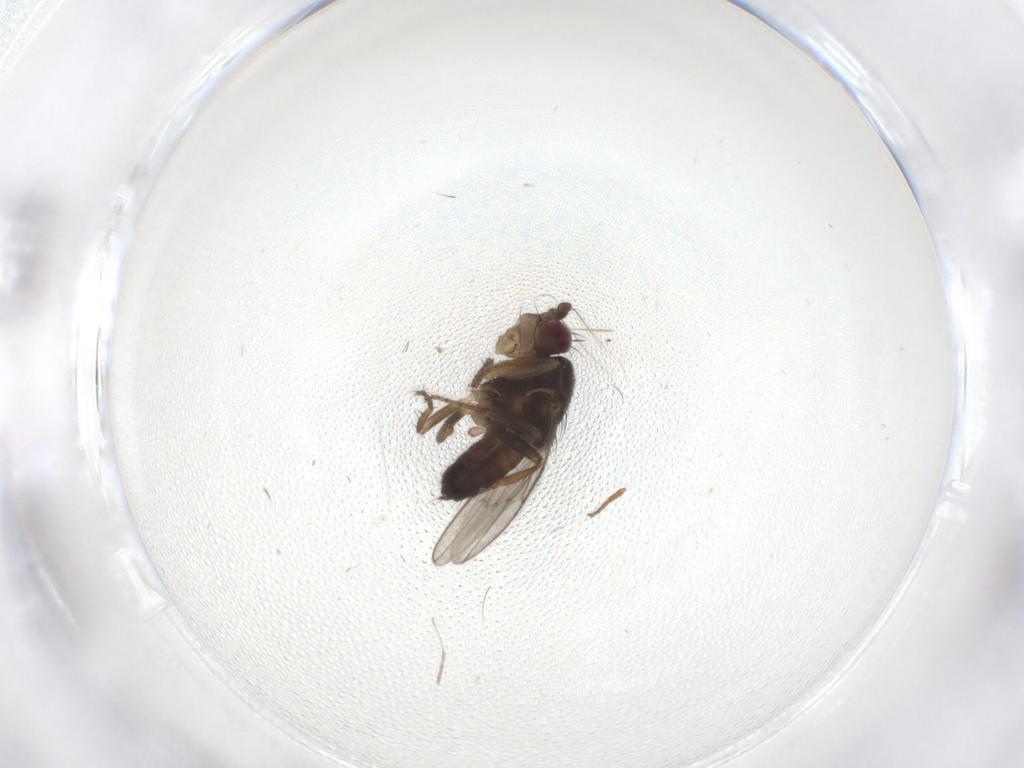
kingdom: Animalia
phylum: Arthropoda
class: Insecta
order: Diptera
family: Sphaeroceridae
